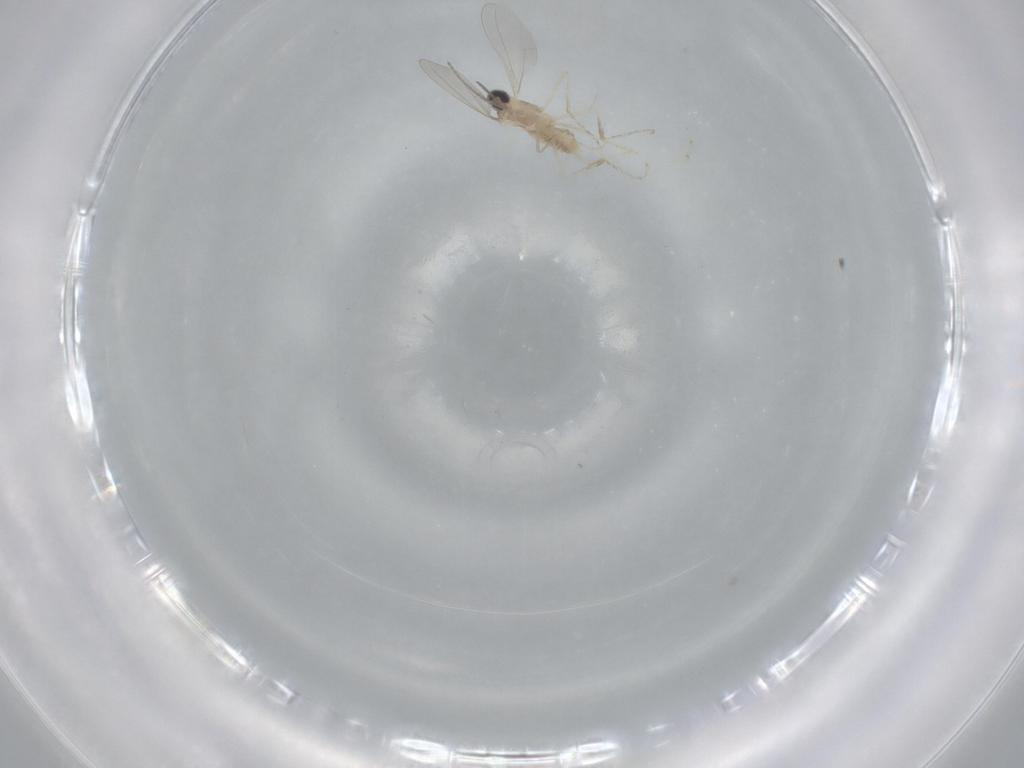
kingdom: Animalia
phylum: Arthropoda
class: Insecta
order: Diptera
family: Cecidomyiidae
